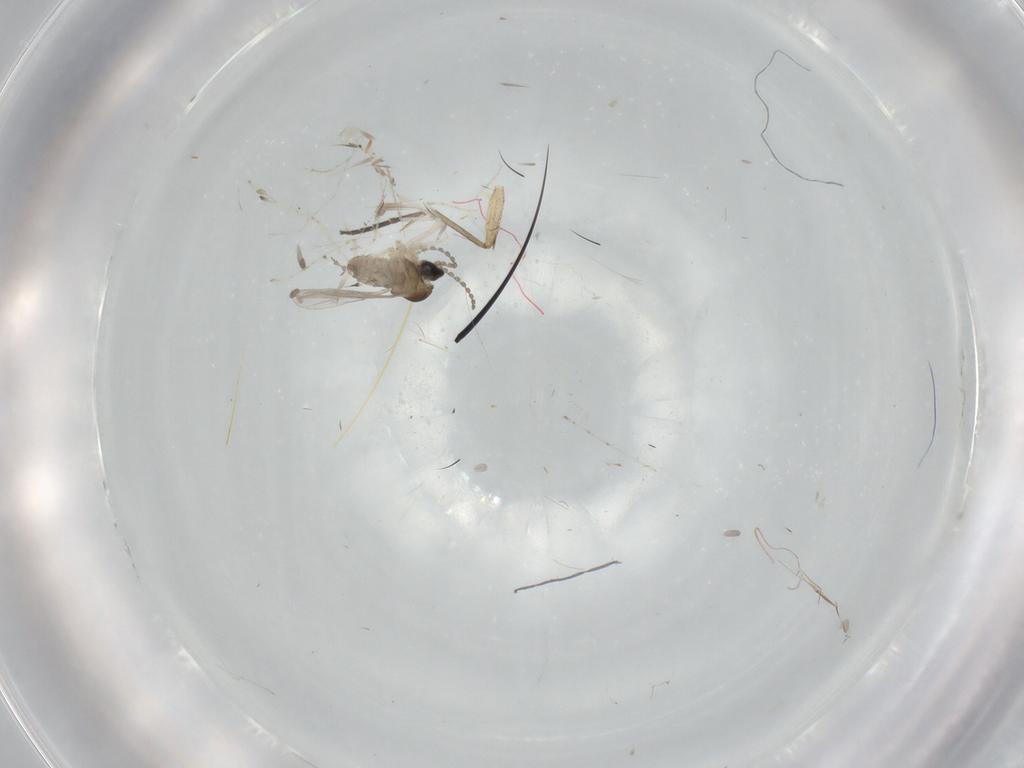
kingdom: Animalia
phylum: Arthropoda
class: Insecta
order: Diptera
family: Cecidomyiidae
